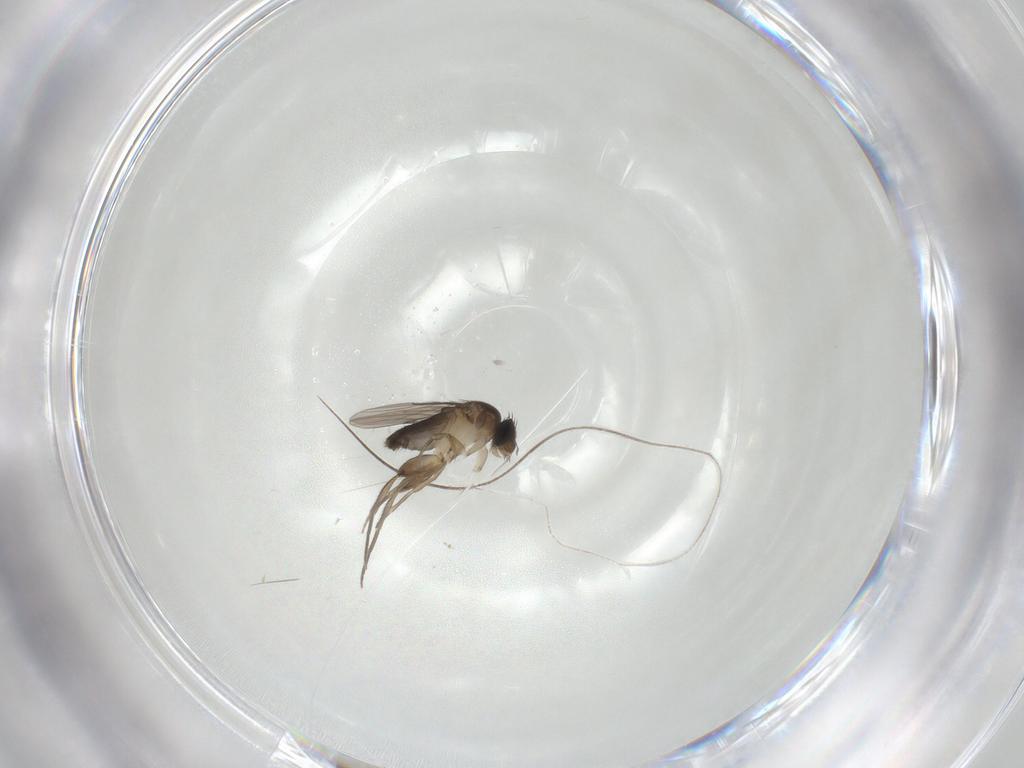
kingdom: Animalia
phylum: Arthropoda
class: Insecta
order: Diptera
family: Phoridae
